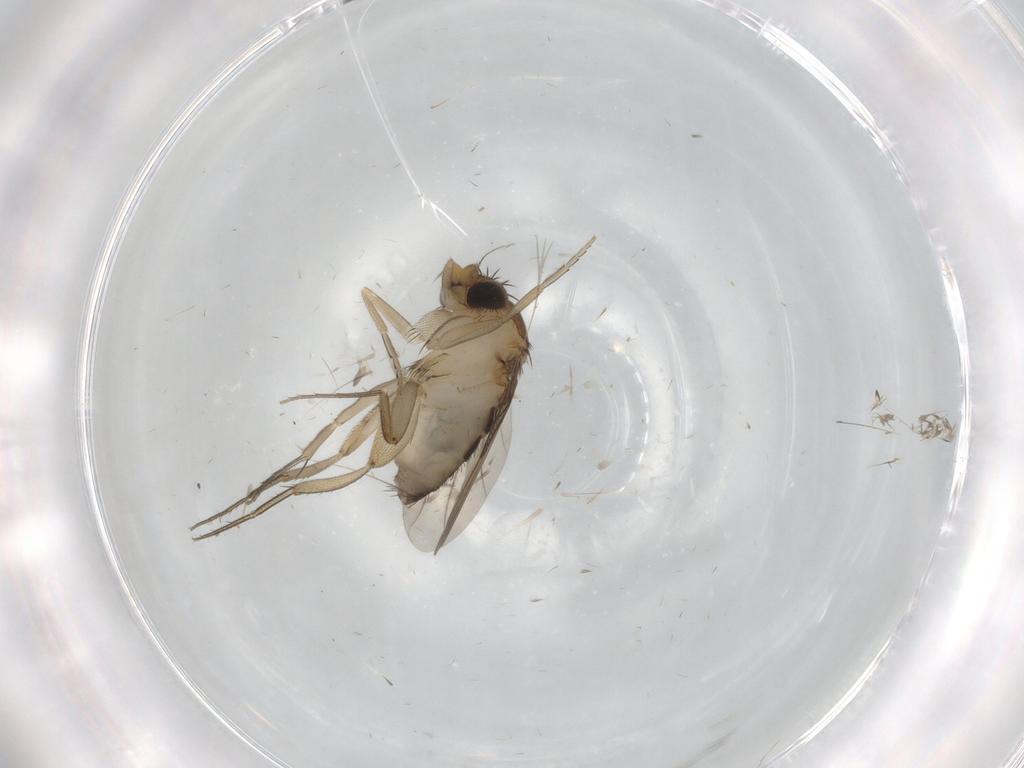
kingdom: Animalia
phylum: Arthropoda
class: Insecta
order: Diptera
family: Phoridae
